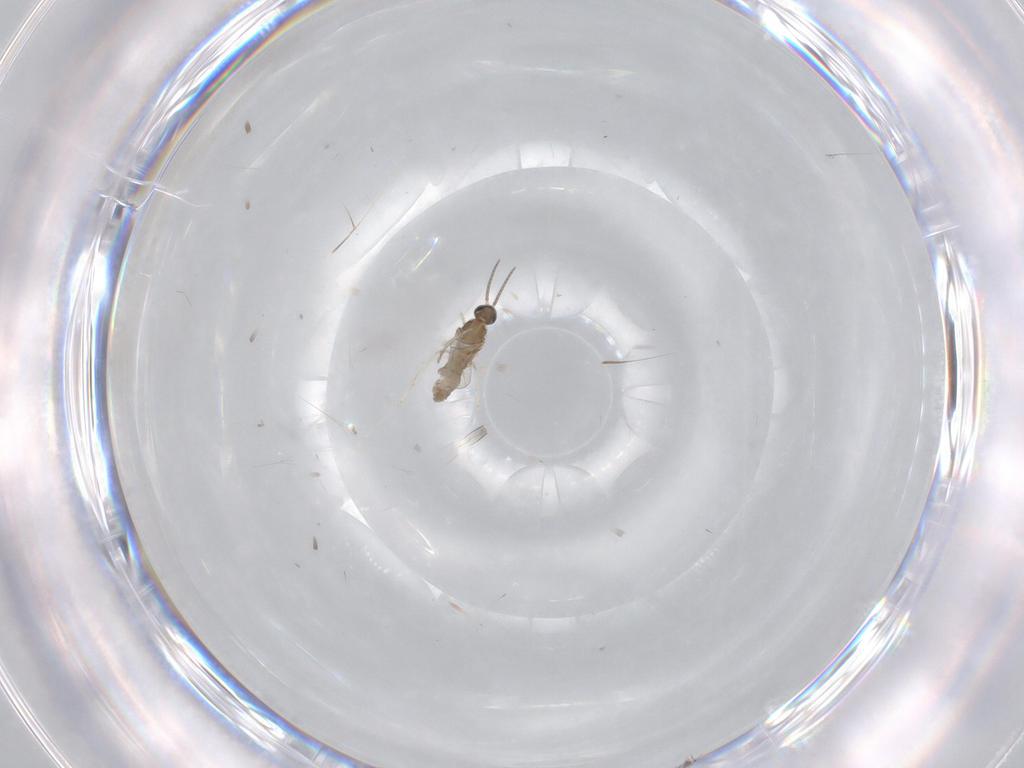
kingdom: Animalia
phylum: Arthropoda
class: Insecta
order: Diptera
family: Cecidomyiidae
